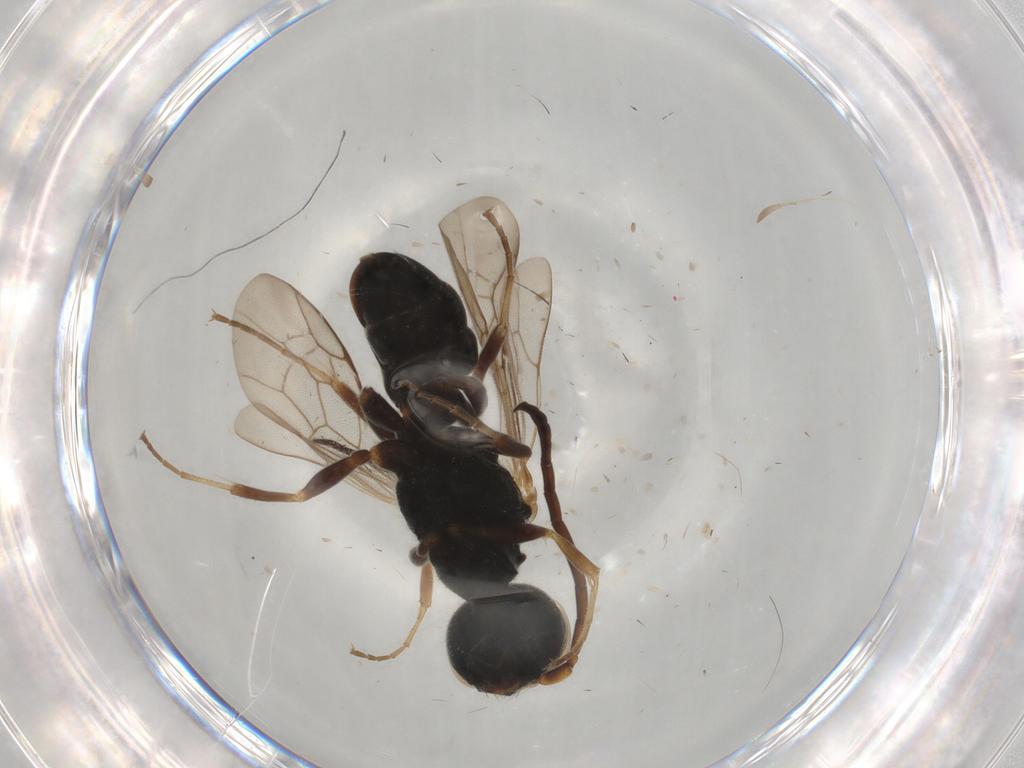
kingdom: Animalia
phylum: Arthropoda
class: Insecta
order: Hymenoptera
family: Ampulicidae
